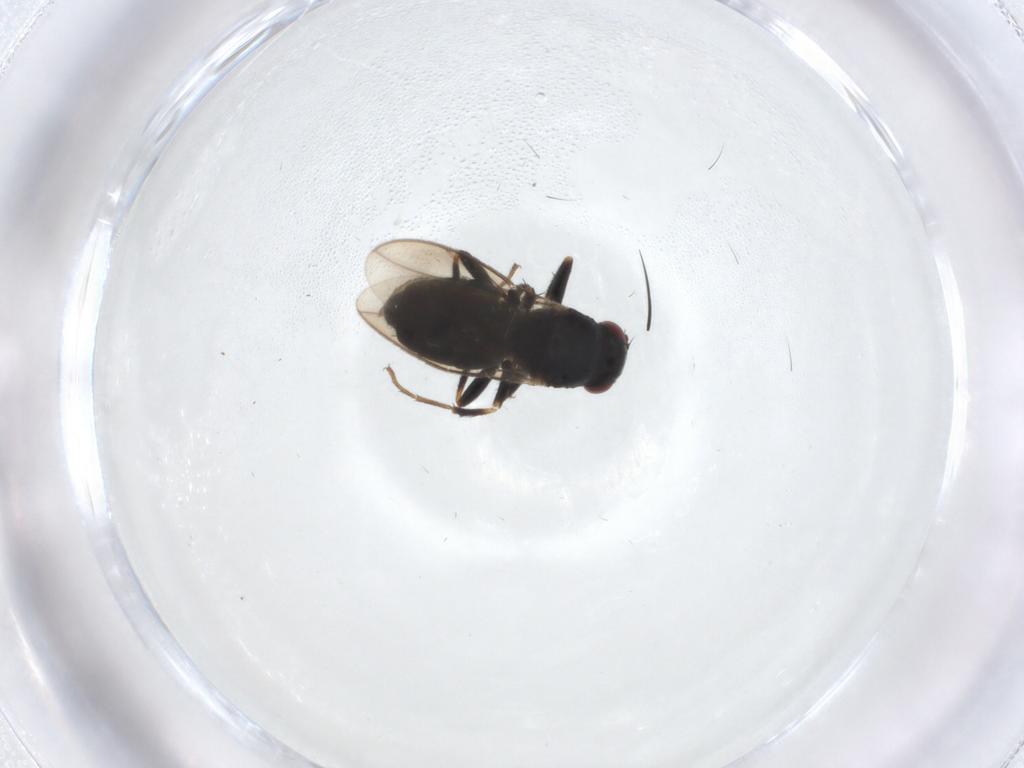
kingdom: Animalia
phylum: Arthropoda
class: Insecta
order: Diptera
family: Sphaeroceridae
